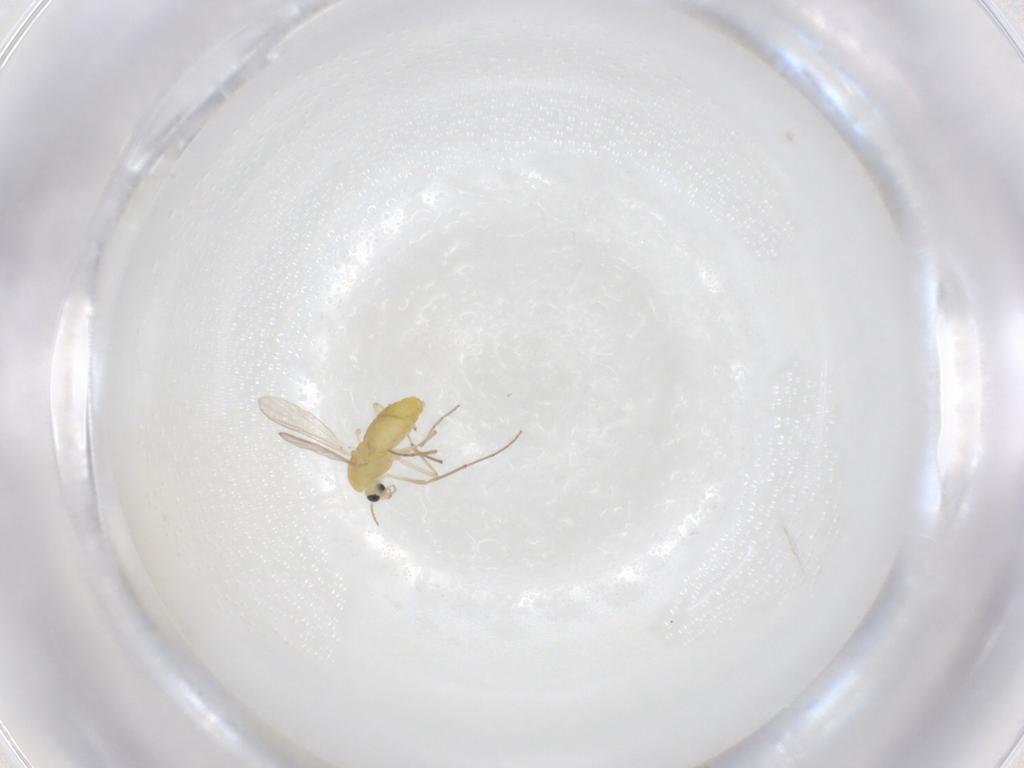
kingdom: Animalia
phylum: Arthropoda
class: Insecta
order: Diptera
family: Chironomidae
